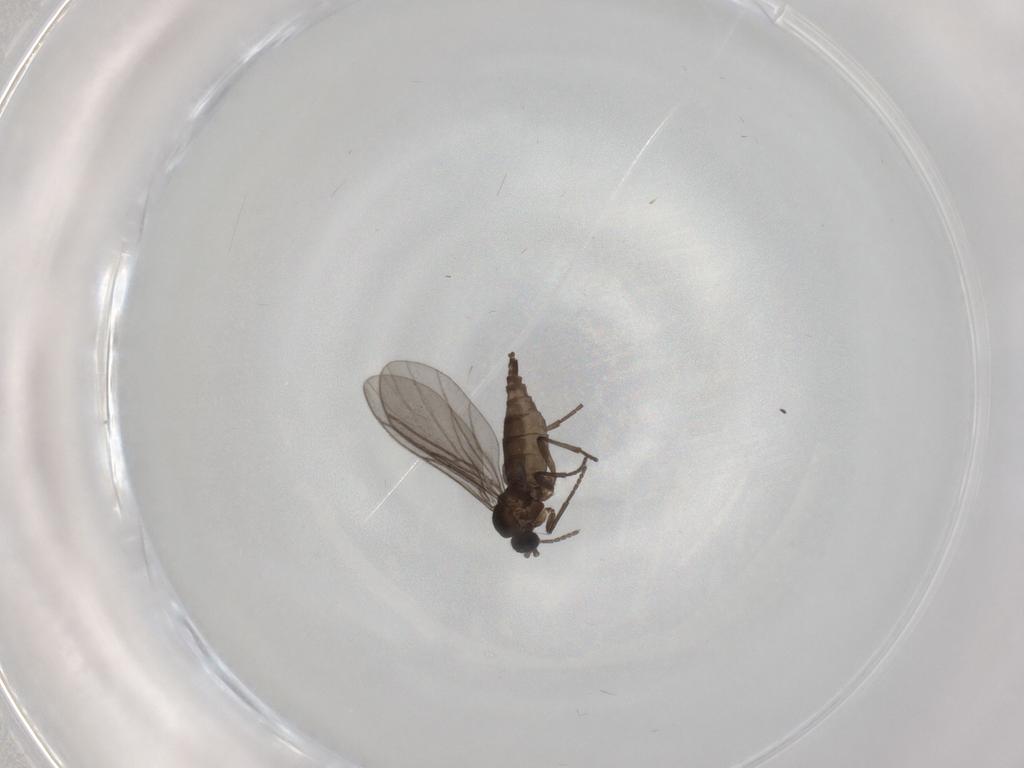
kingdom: Animalia
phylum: Arthropoda
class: Insecta
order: Diptera
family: Sciaridae
